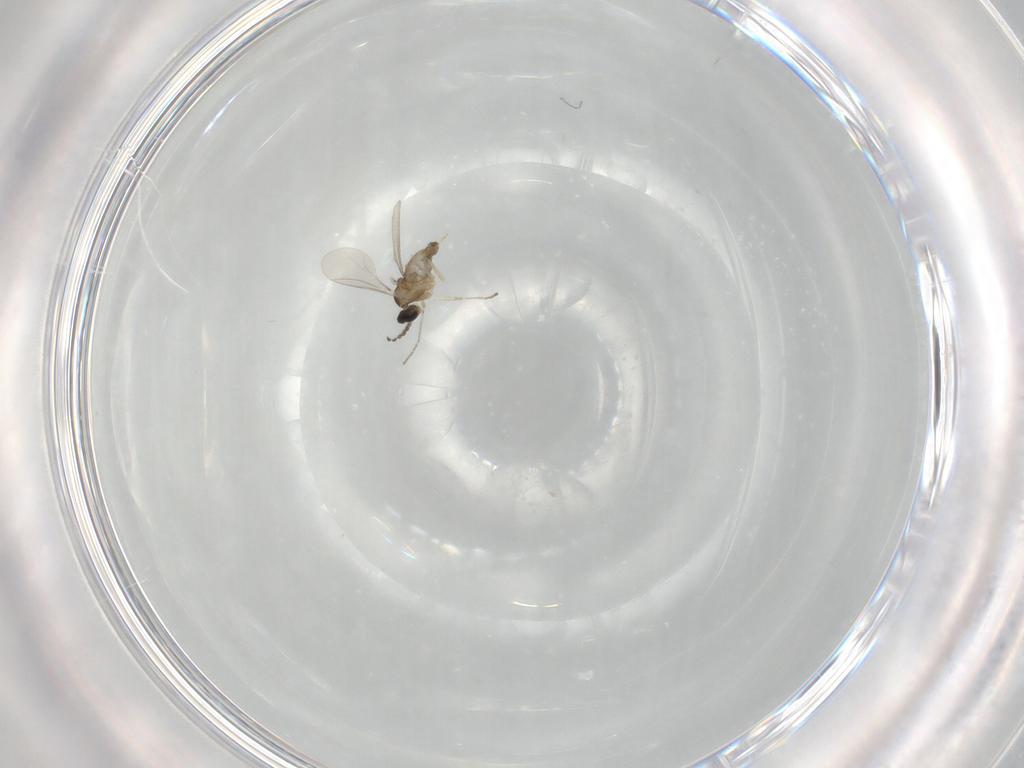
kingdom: Animalia
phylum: Arthropoda
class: Insecta
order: Diptera
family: Cecidomyiidae
